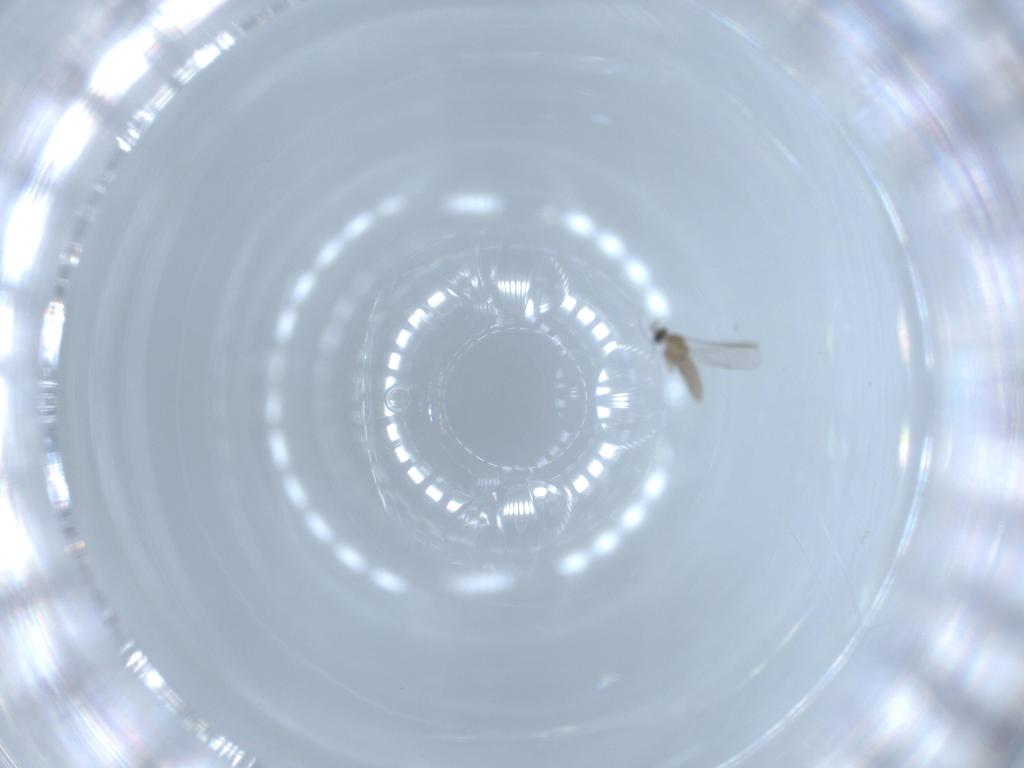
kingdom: Animalia
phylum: Arthropoda
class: Insecta
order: Diptera
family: Cecidomyiidae
